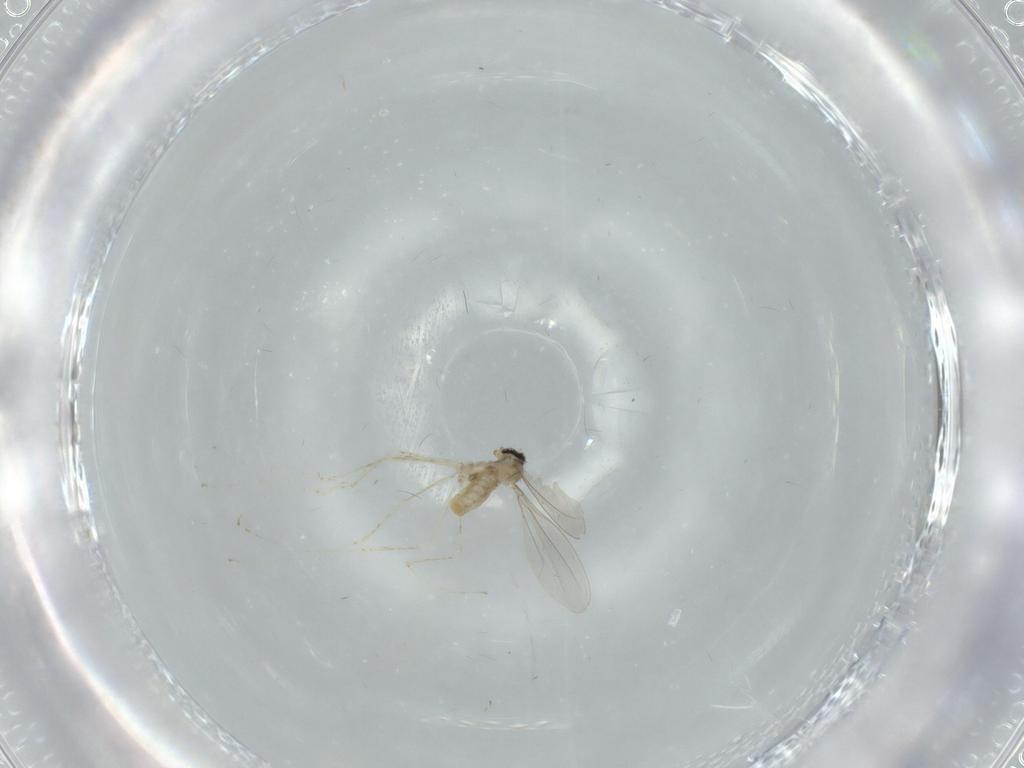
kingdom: Animalia
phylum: Arthropoda
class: Insecta
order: Diptera
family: Cecidomyiidae
